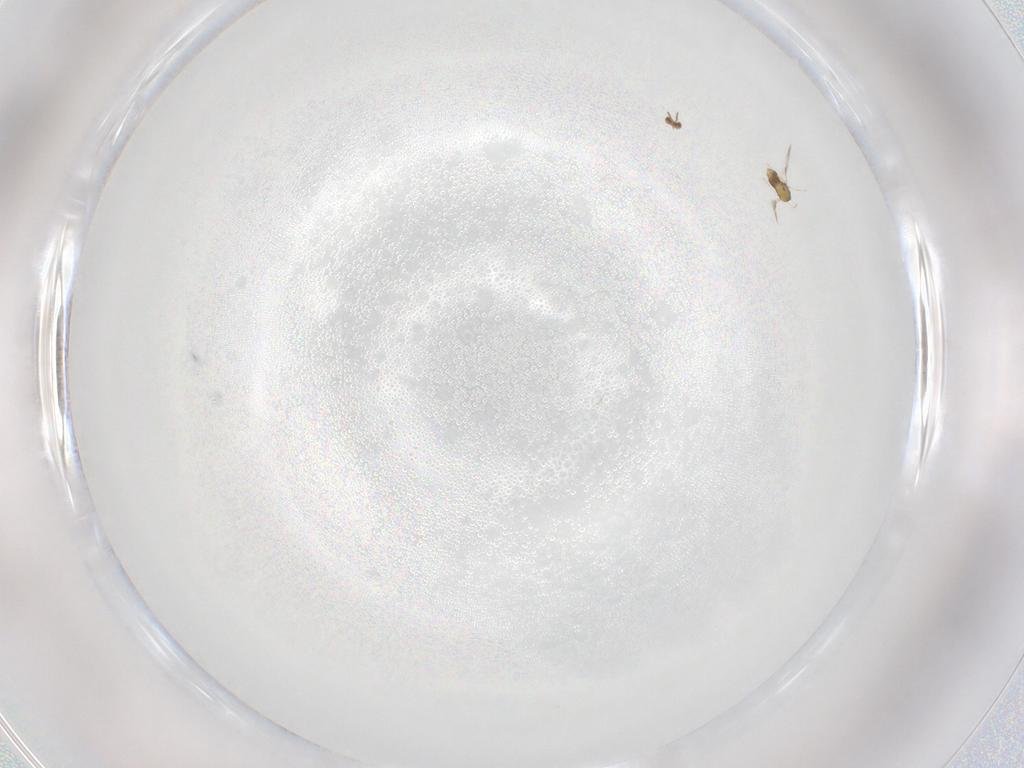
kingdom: Animalia
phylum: Arthropoda
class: Insecta
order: Hymenoptera
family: Aphelinidae
